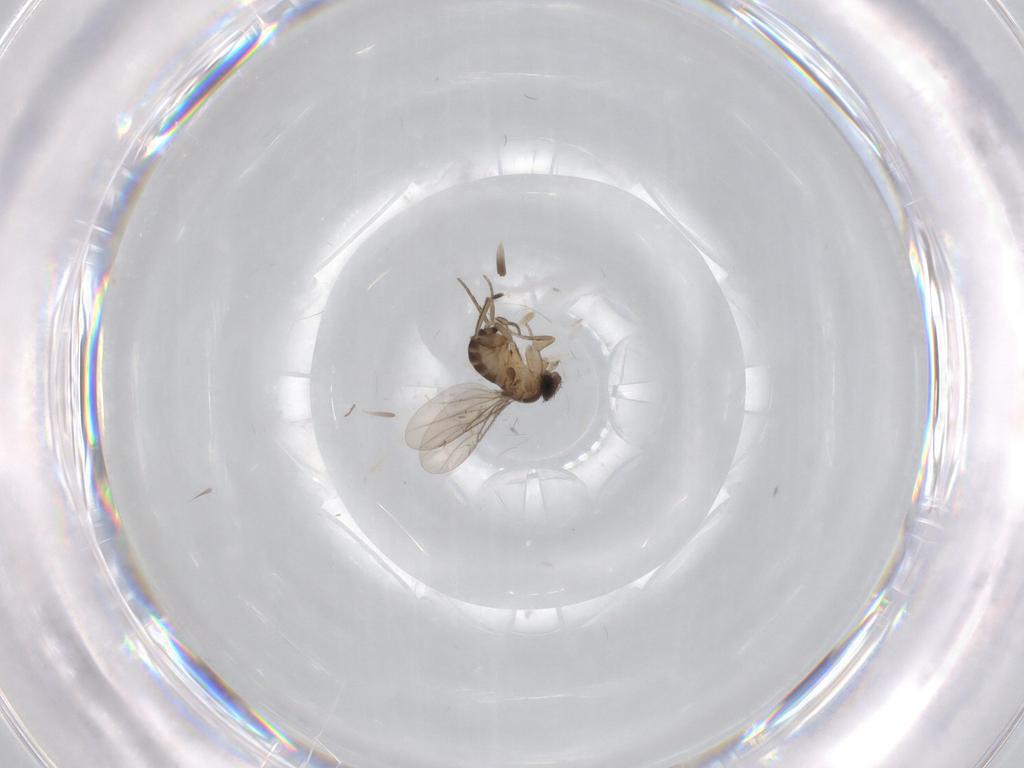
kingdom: Animalia
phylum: Arthropoda
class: Insecta
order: Diptera
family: Phoridae
